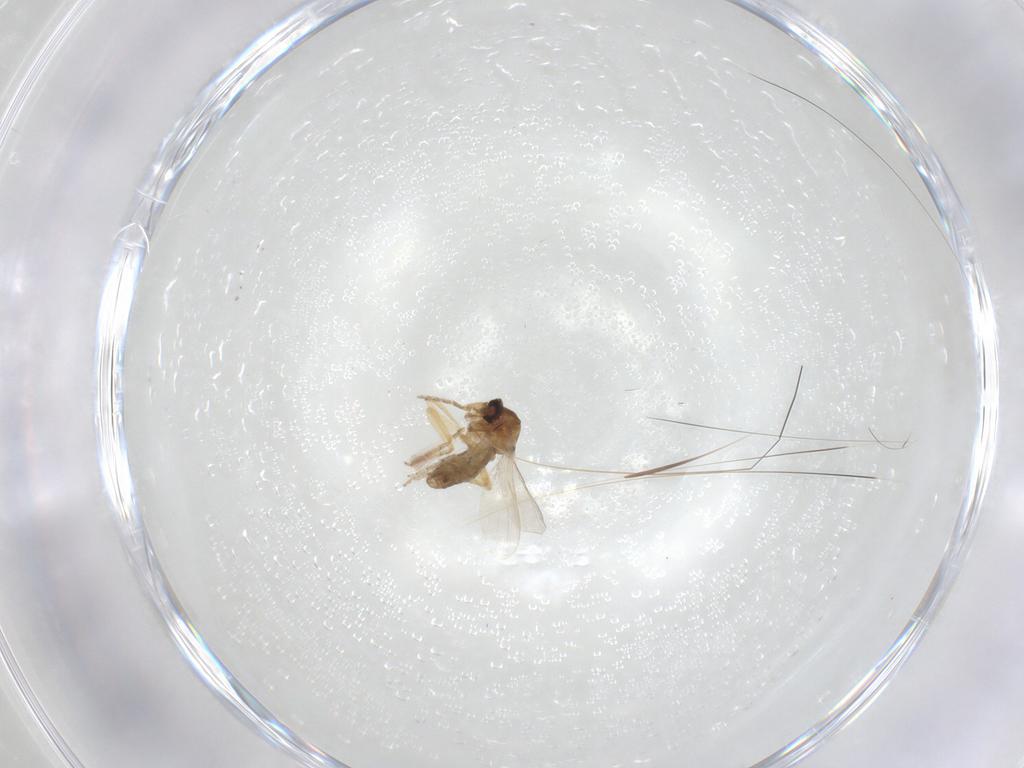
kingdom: Animalia
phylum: Arthropoda
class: Insecta
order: Diptera
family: Ceratopogonidae
